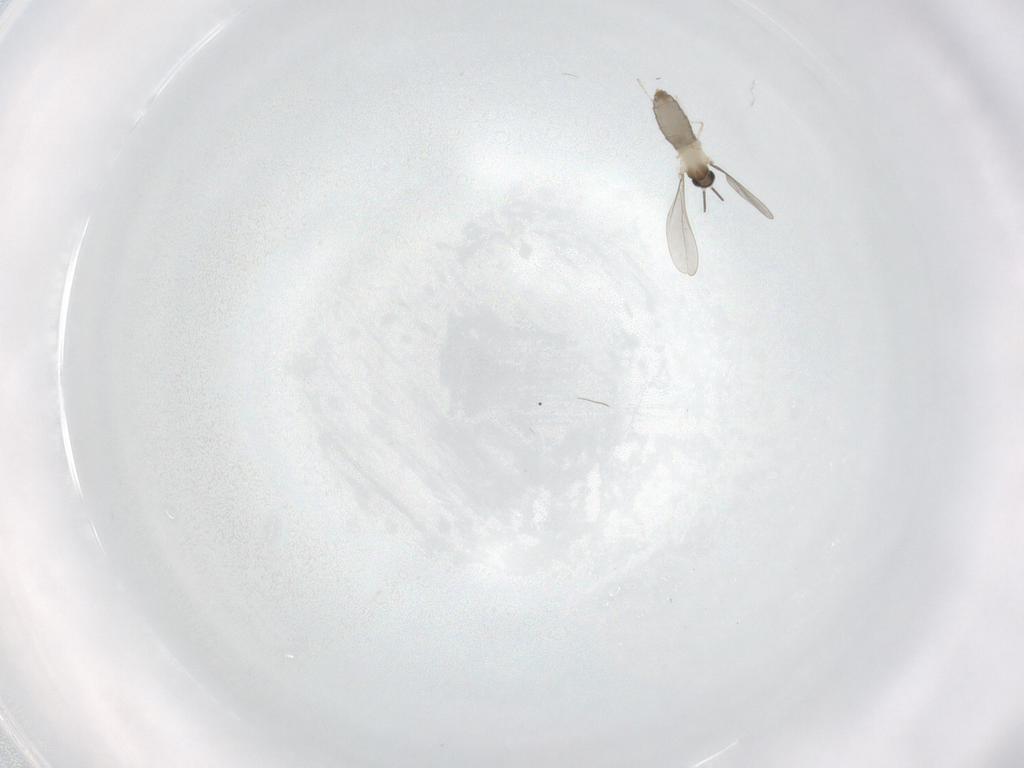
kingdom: Animalia
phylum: Arthropoda
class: Insecta
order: Diptera
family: Cecidomyiidae
